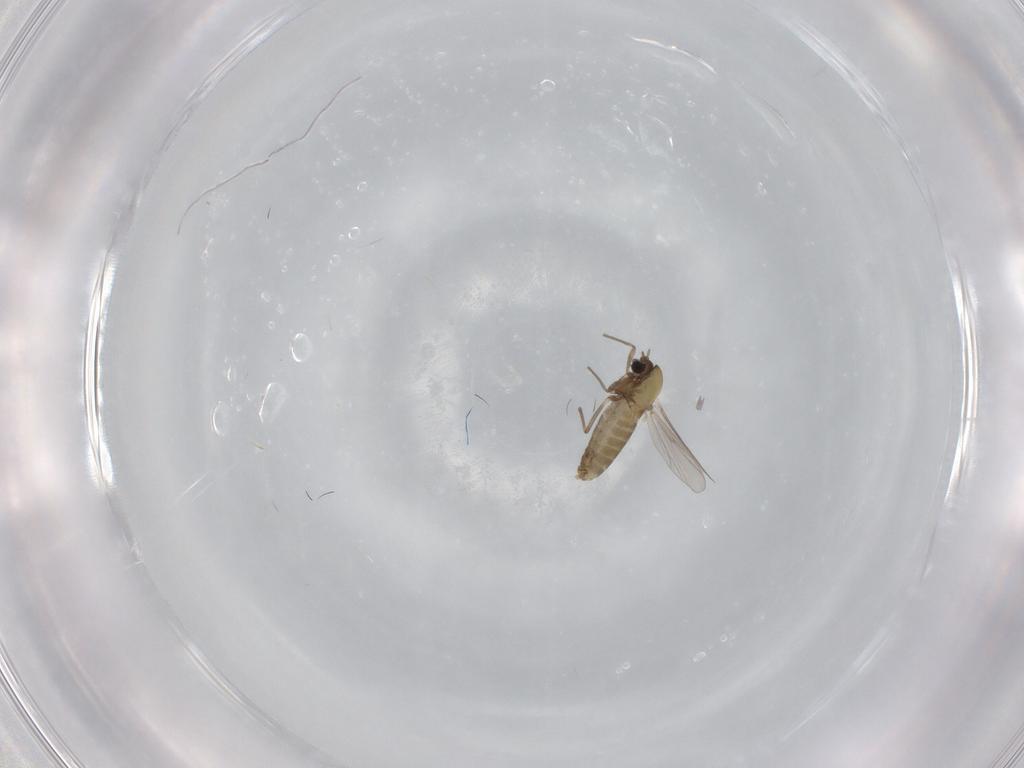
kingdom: Animalia
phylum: Arthropoda
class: Insecta
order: Diptera
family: Chironomidae
